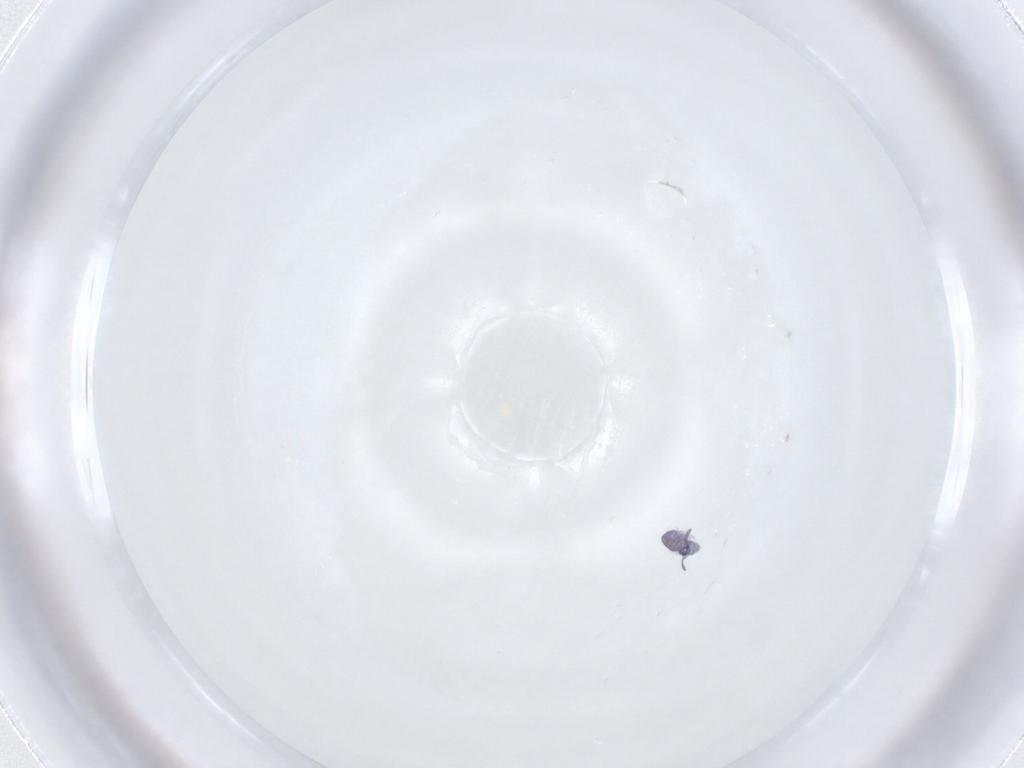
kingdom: Animalia
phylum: Arthropoda
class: Collembola
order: Symphypleona
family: Katiannidae
